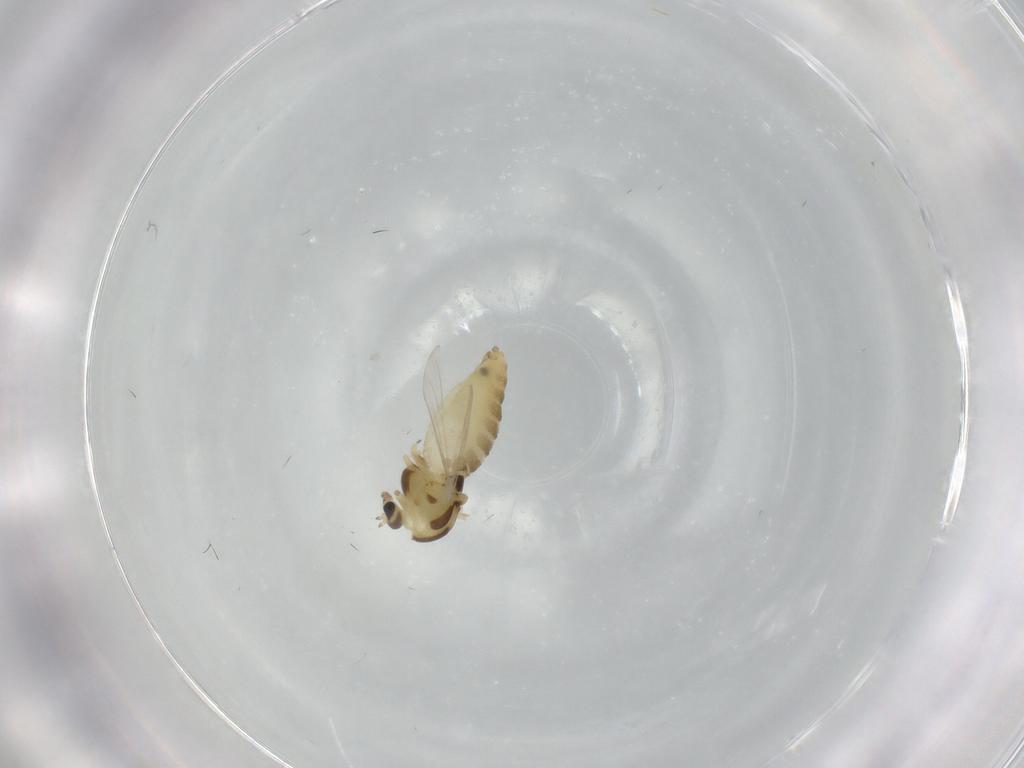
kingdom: Animalia
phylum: Arthropoda
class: Insecta
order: Diptera
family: Chironomidae
